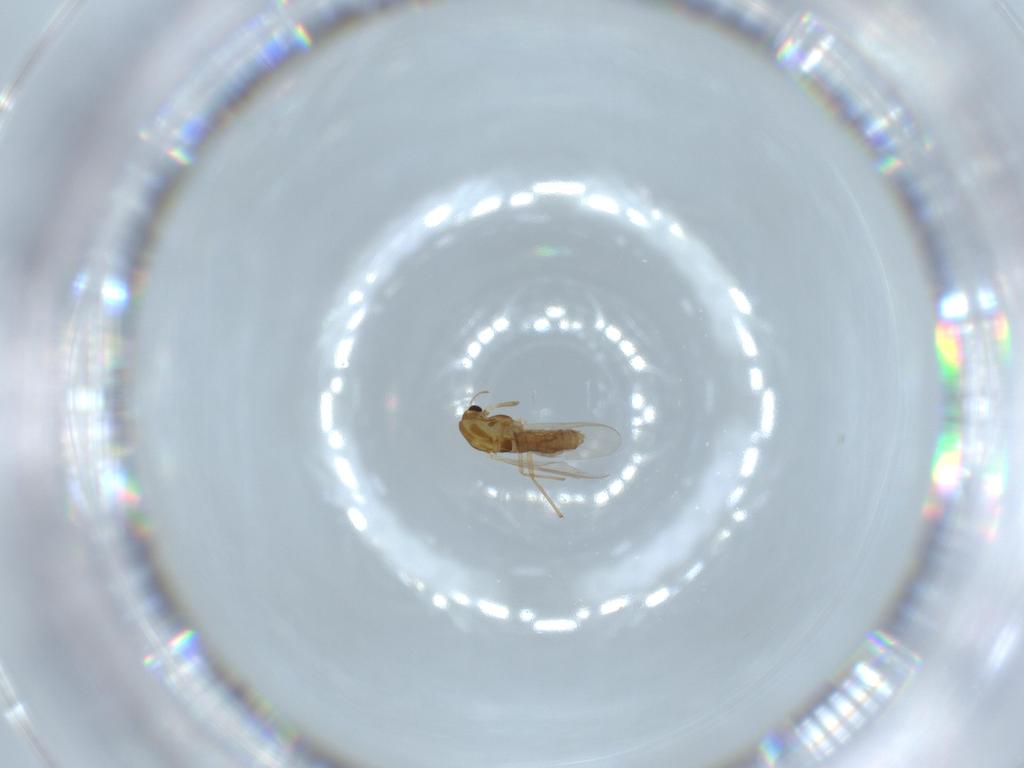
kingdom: Animalia
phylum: Arthropoda
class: Insecta
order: Diptera
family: Chironomidae
